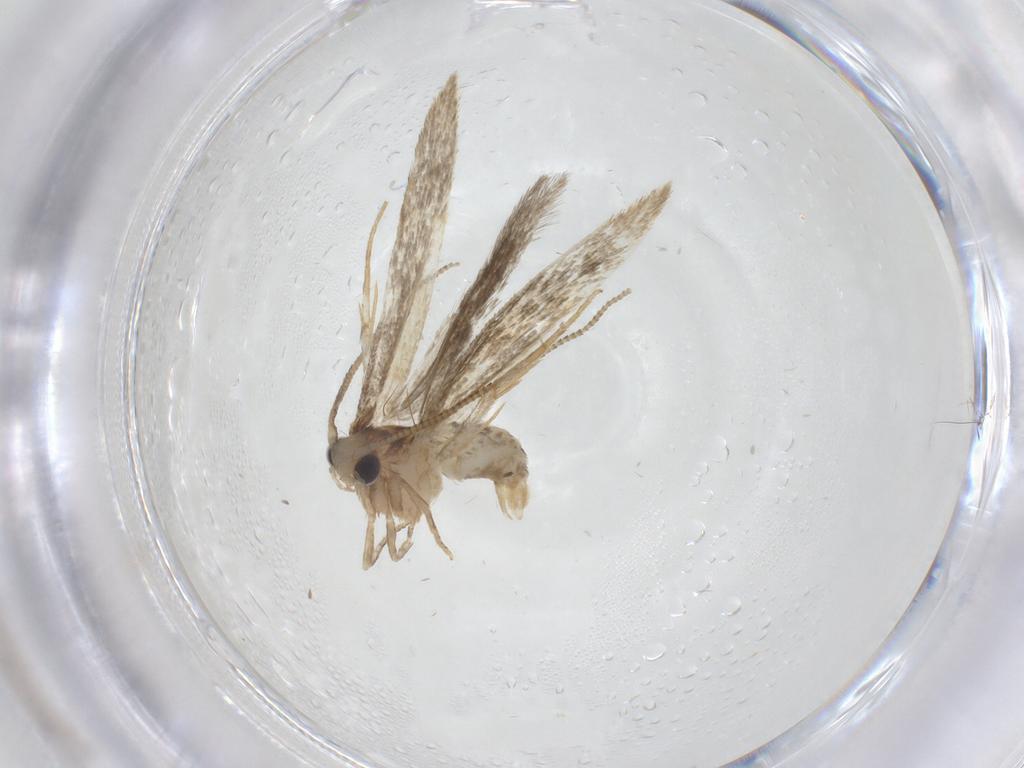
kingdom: Animalia
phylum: Arthropoda
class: Insecta
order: Lepidoptera
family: Tineidae
